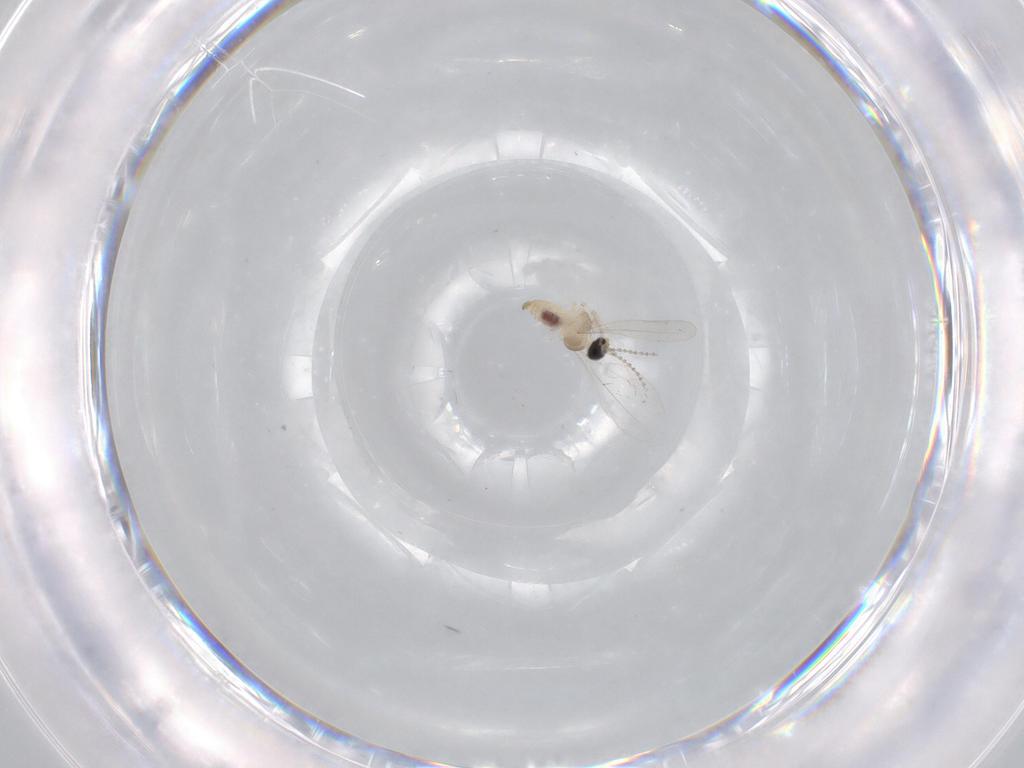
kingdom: Animalia
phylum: Arthropoda
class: Insecta
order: Diptera
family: Cecidomyiidae
